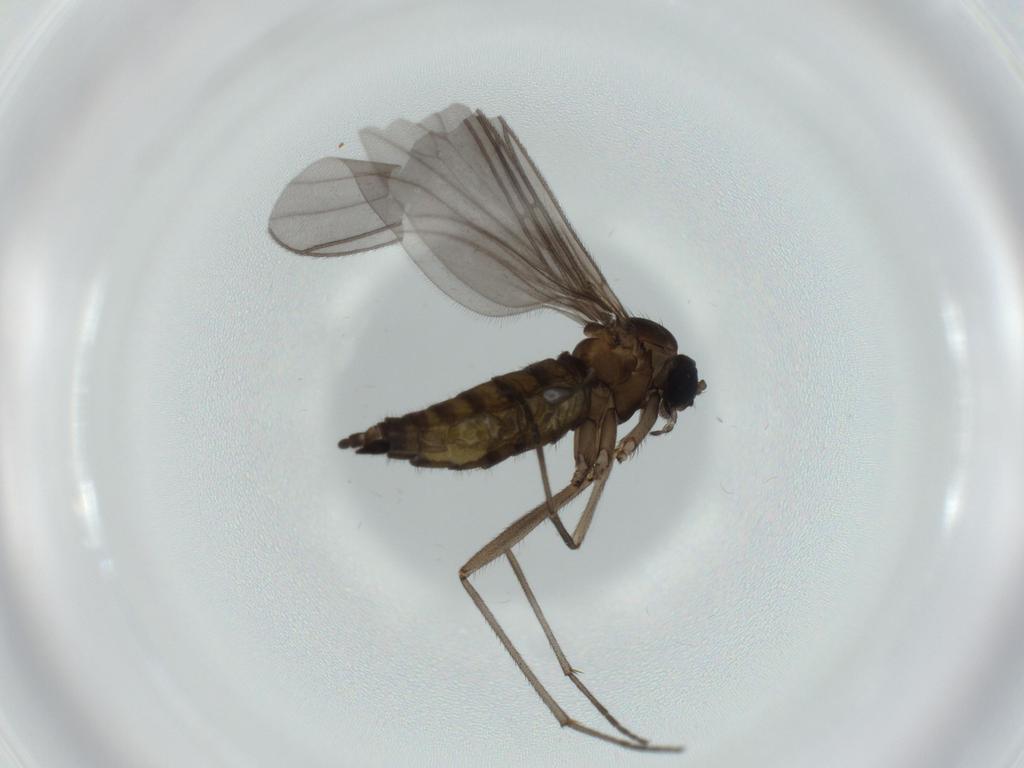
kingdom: Animalia
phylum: Arthropoda
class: Insecta
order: Diptera
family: Sciaridae
